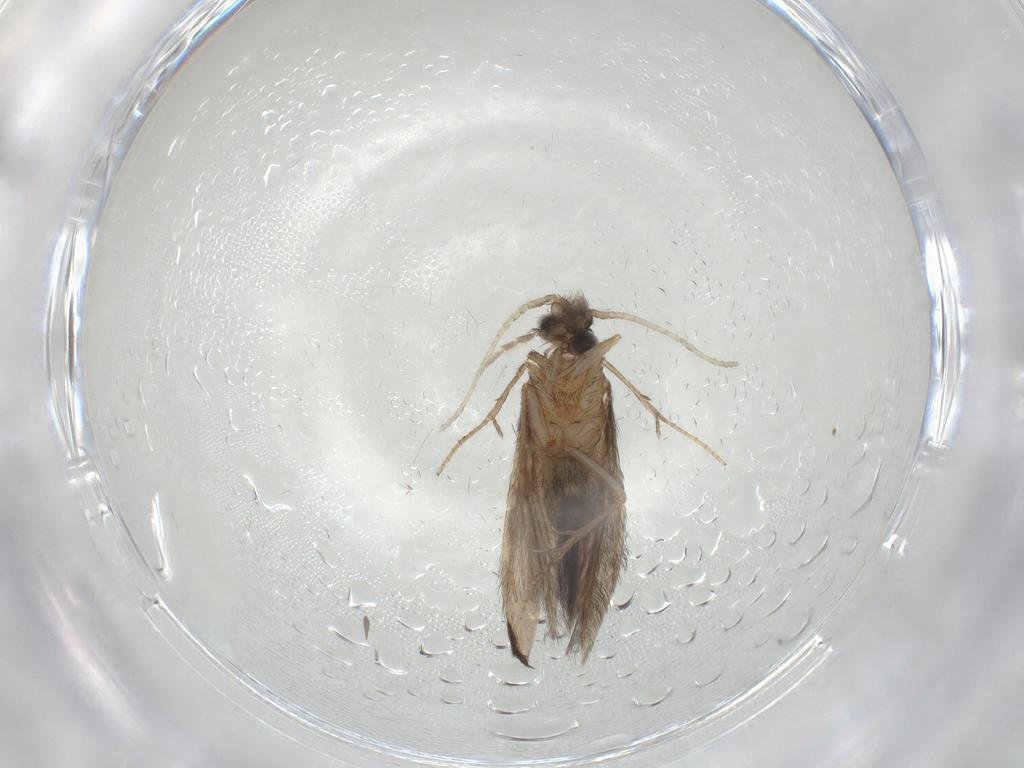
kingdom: Animalia
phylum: Arthropoda
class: Insecta
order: Trichoptera
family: Hydroptilidae
